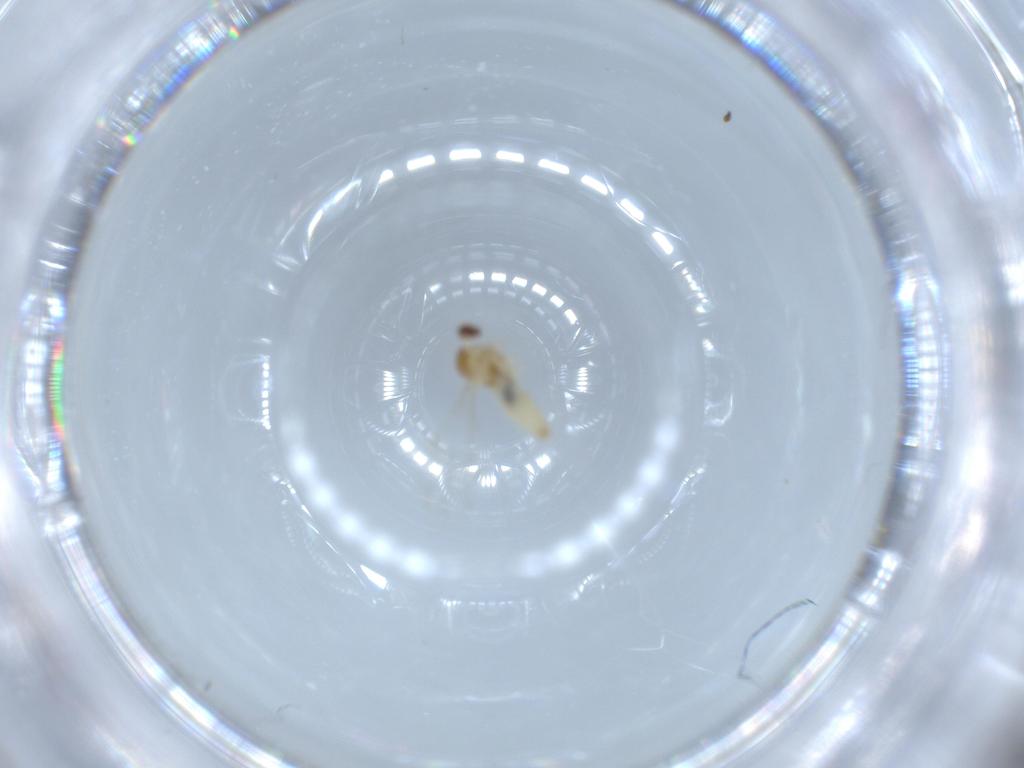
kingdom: Animalia
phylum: Arthropoda
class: Insecta
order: Diptera
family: Cecidomyiidae
